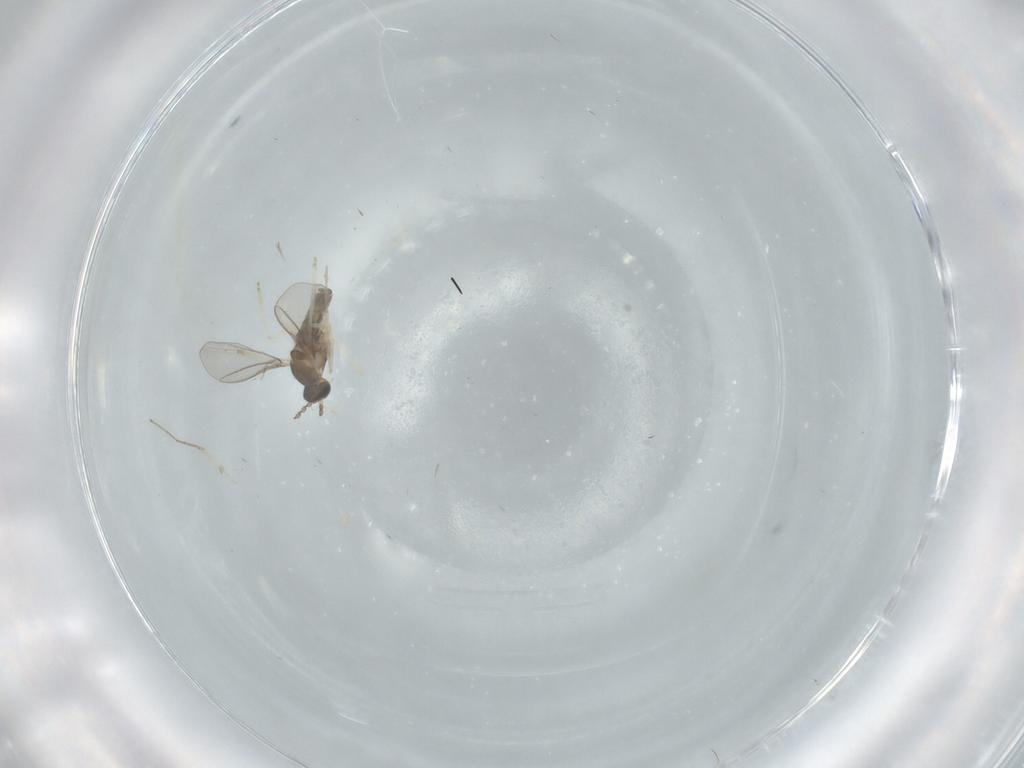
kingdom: Animalia
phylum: Arthropoda
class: Insecta
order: Diptera
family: Cecidomyiidae
